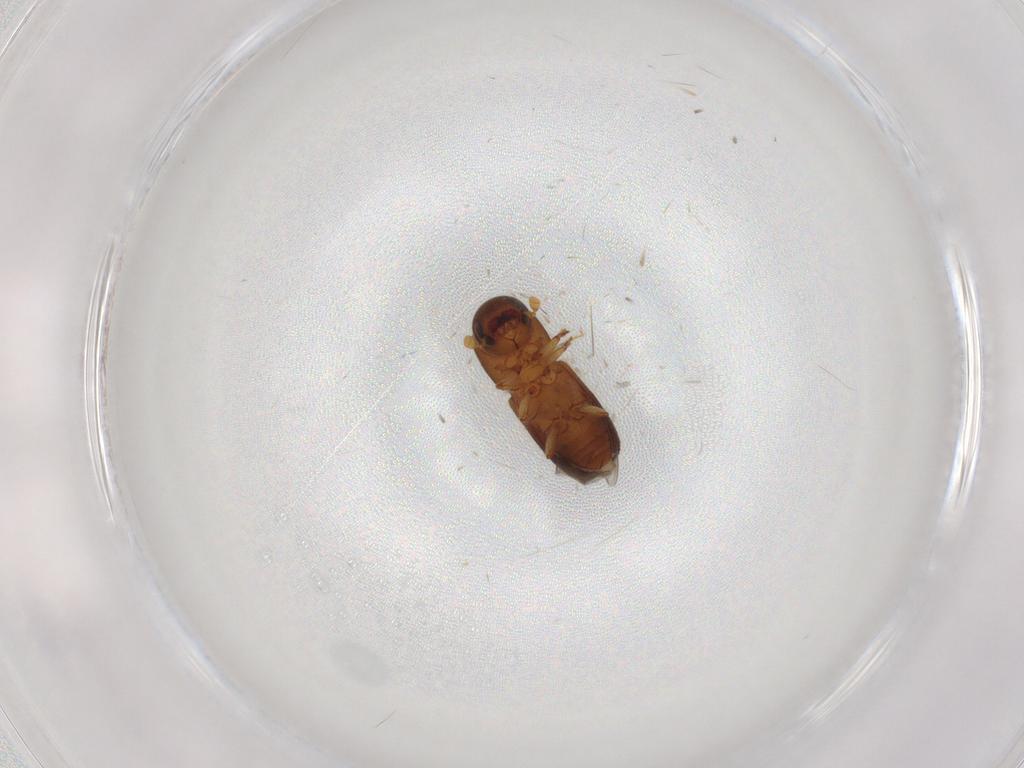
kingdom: Animalia
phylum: Arthropoda
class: Insecta
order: Coleoptera
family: Curculionidae
